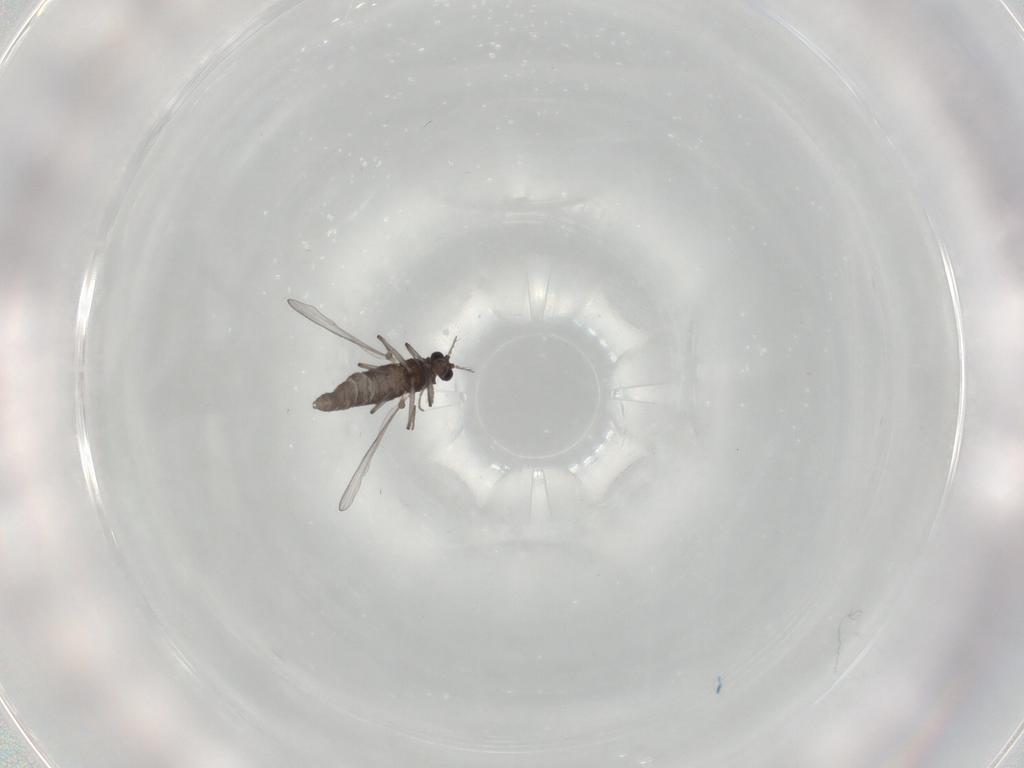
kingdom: Animalia
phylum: Arthropoda
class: Insecta
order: Diptera
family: Chironomidae
